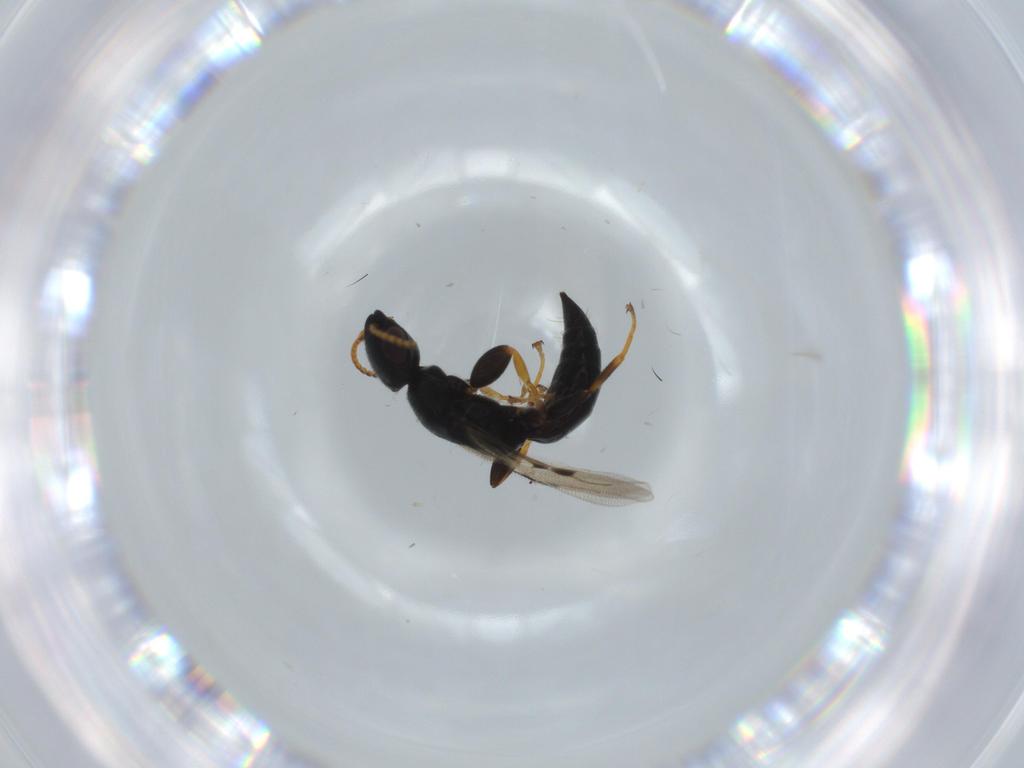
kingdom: Animalia
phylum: Arthropoda
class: Insecta
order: Hymenoptera
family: Bethylidae
